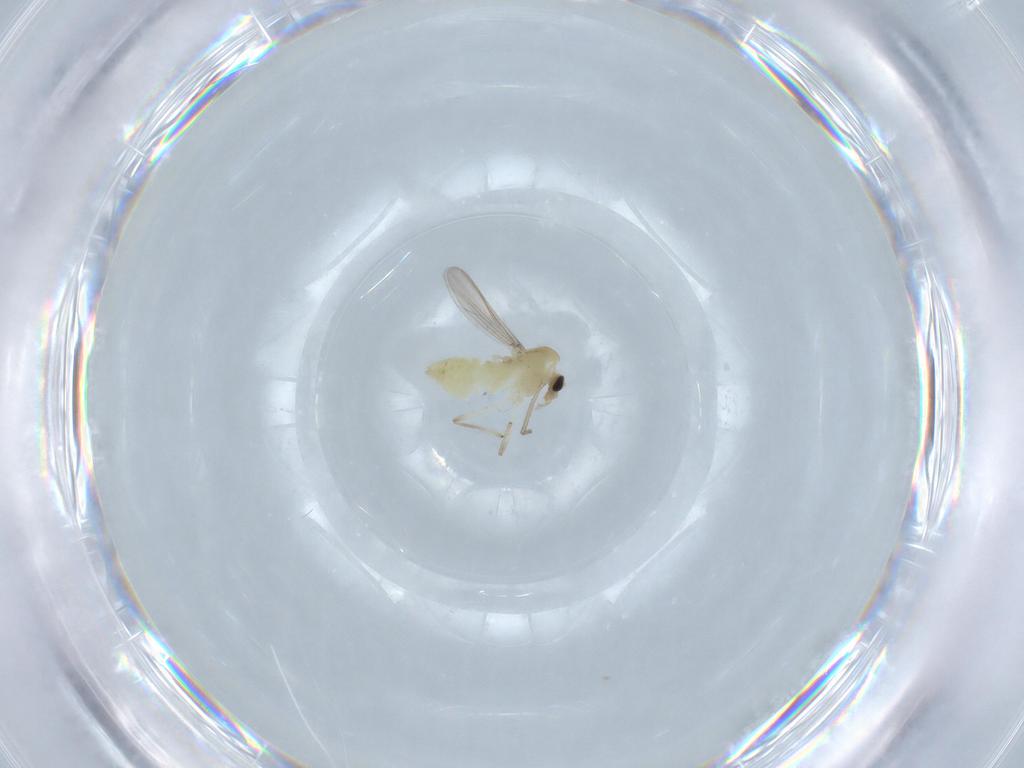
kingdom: Animalia
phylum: Arthropoda
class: Insecta
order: Diptera
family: Chironomidae
